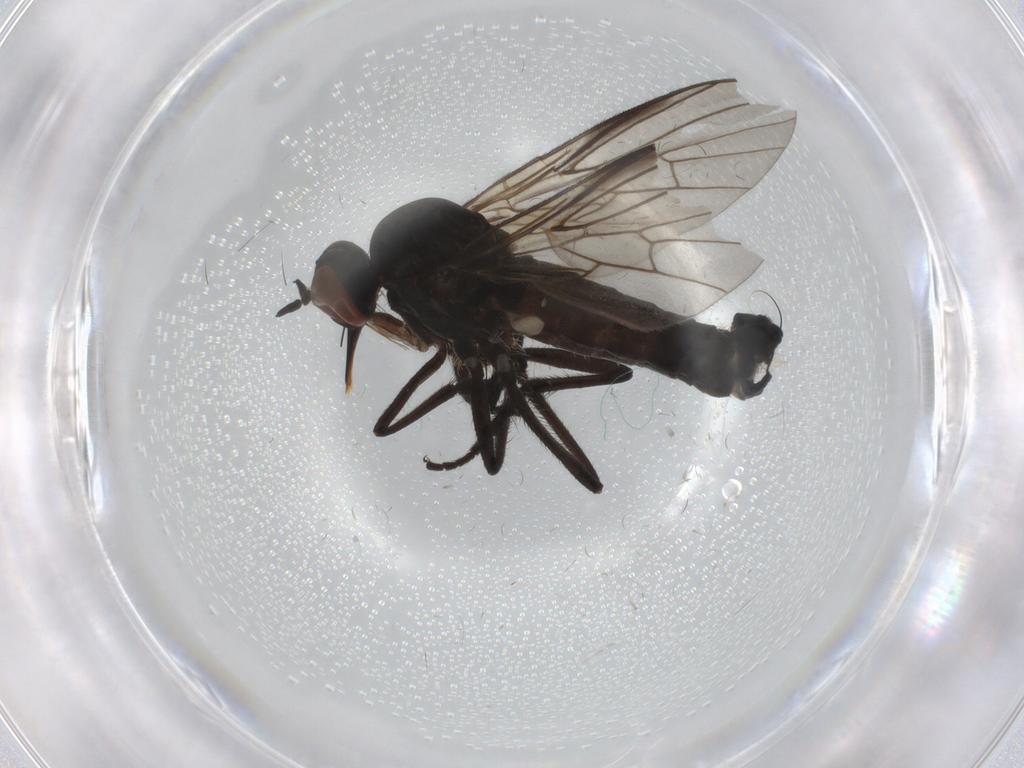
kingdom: Animalia
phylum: Arthropoda
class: Insecta
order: Diptera
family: Empididae
